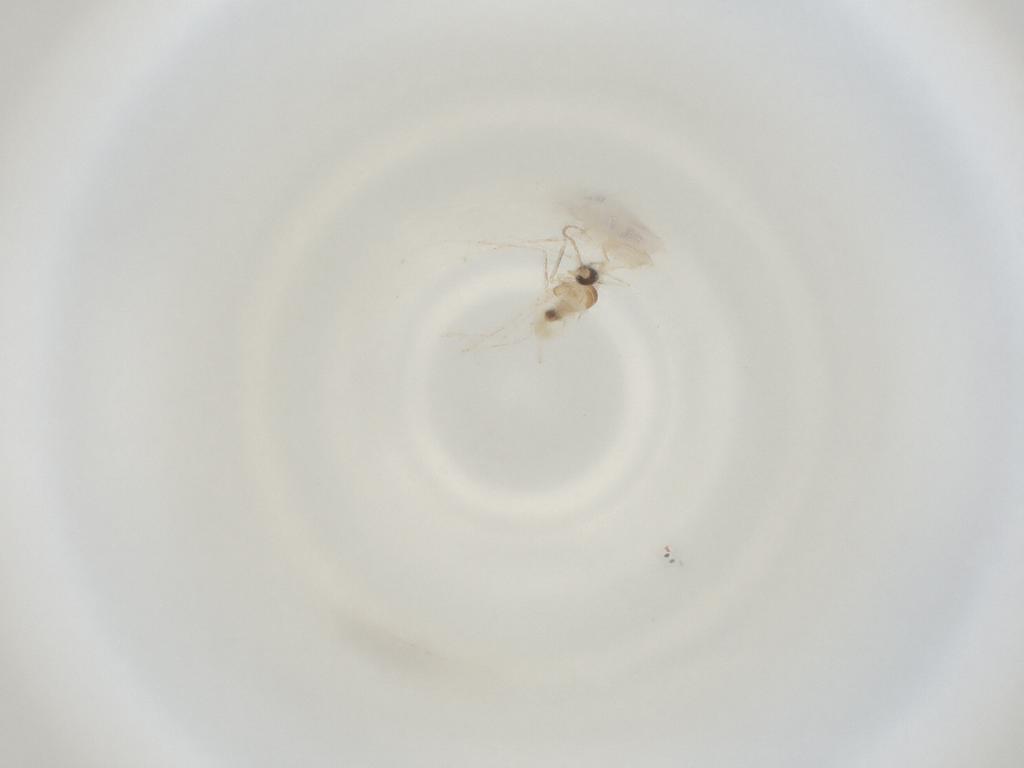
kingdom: Animalia
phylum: Arthropoda
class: Insecta
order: Diptera
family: Cecidomyiidae
